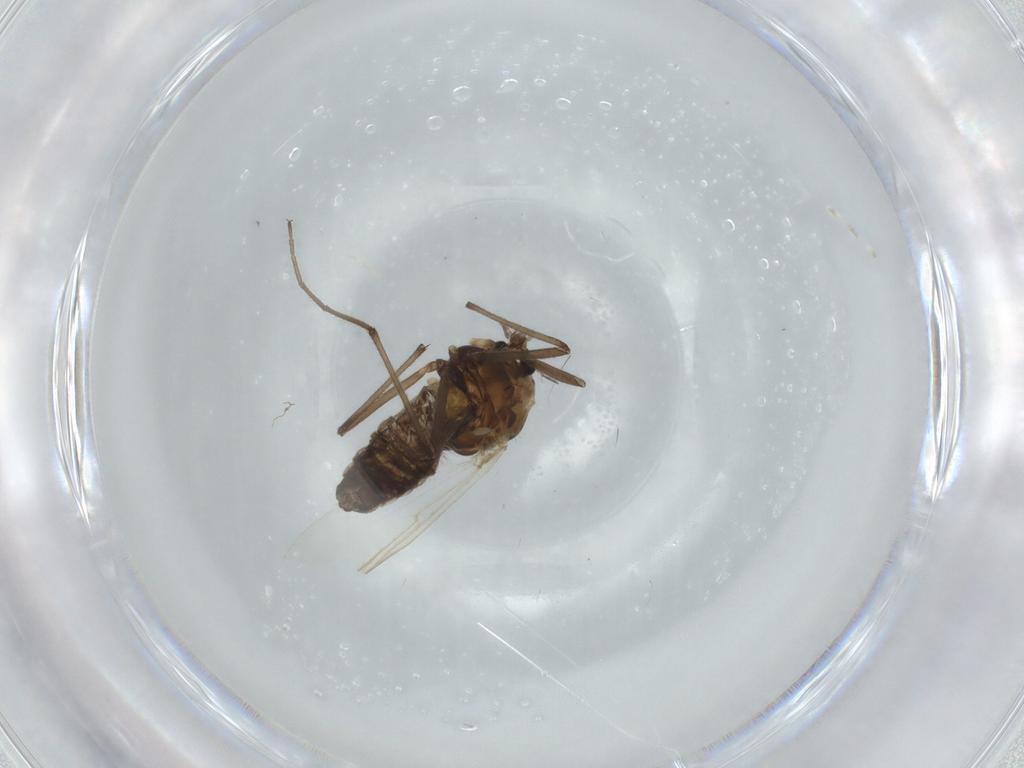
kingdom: Animalia
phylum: Arthropoda
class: Insecta
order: Diptera
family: Chironomidae
